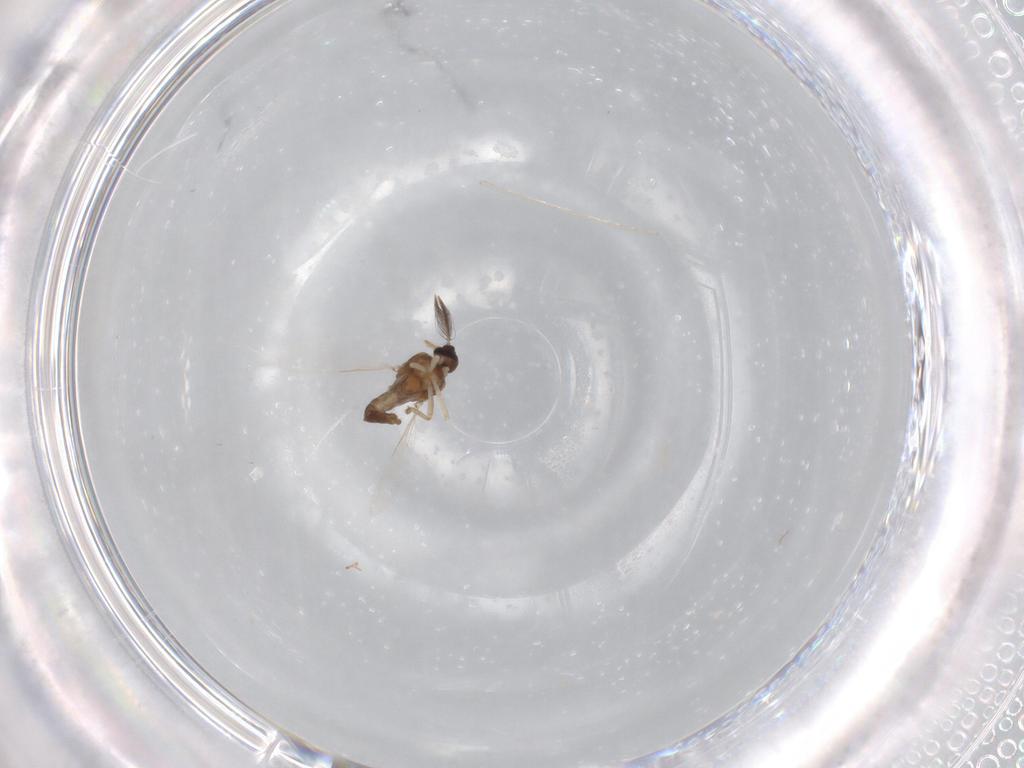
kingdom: Animalia
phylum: Arthropoda
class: Insecta
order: Diptera
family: Ceratopogonidae
